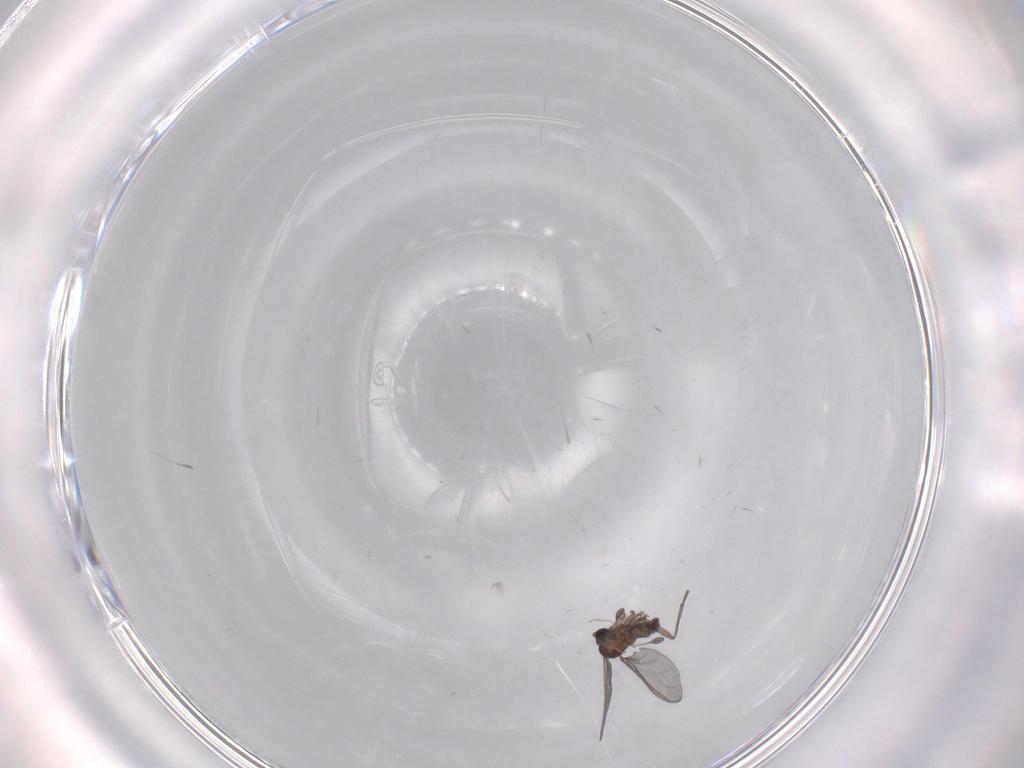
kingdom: Animalia
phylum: Arthropoda
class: Insecta
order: Diptera
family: Sciaridae
